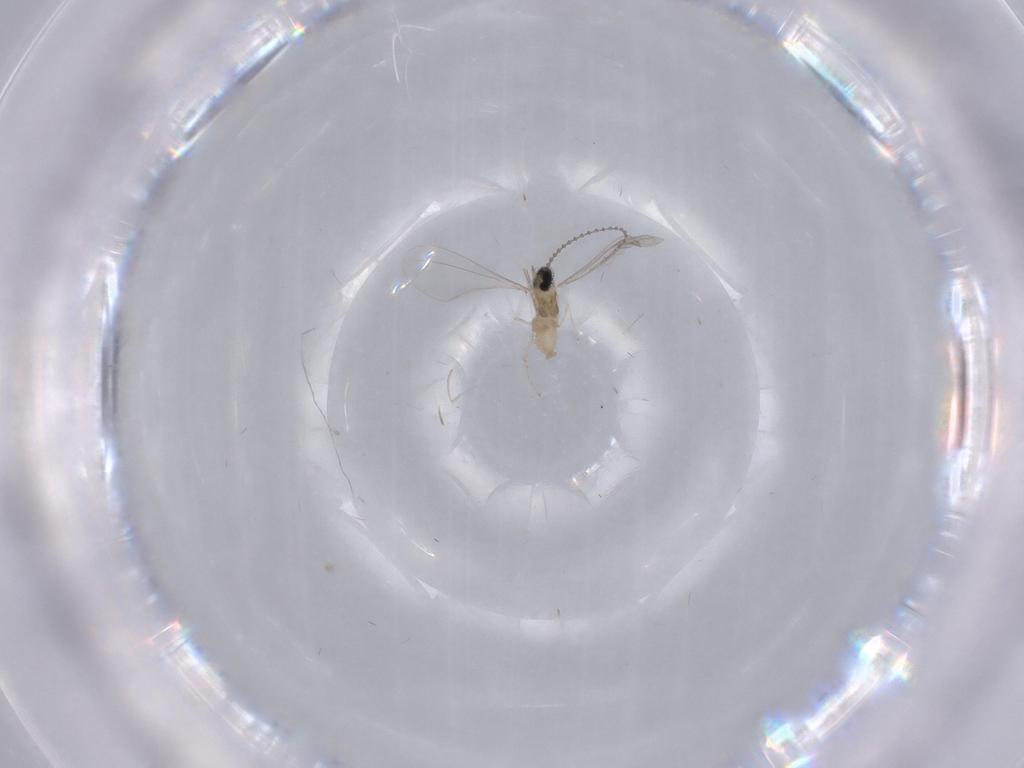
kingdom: Animalia
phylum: Arthropoda
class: Insecta
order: Diptera
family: Cecidomyiidae
